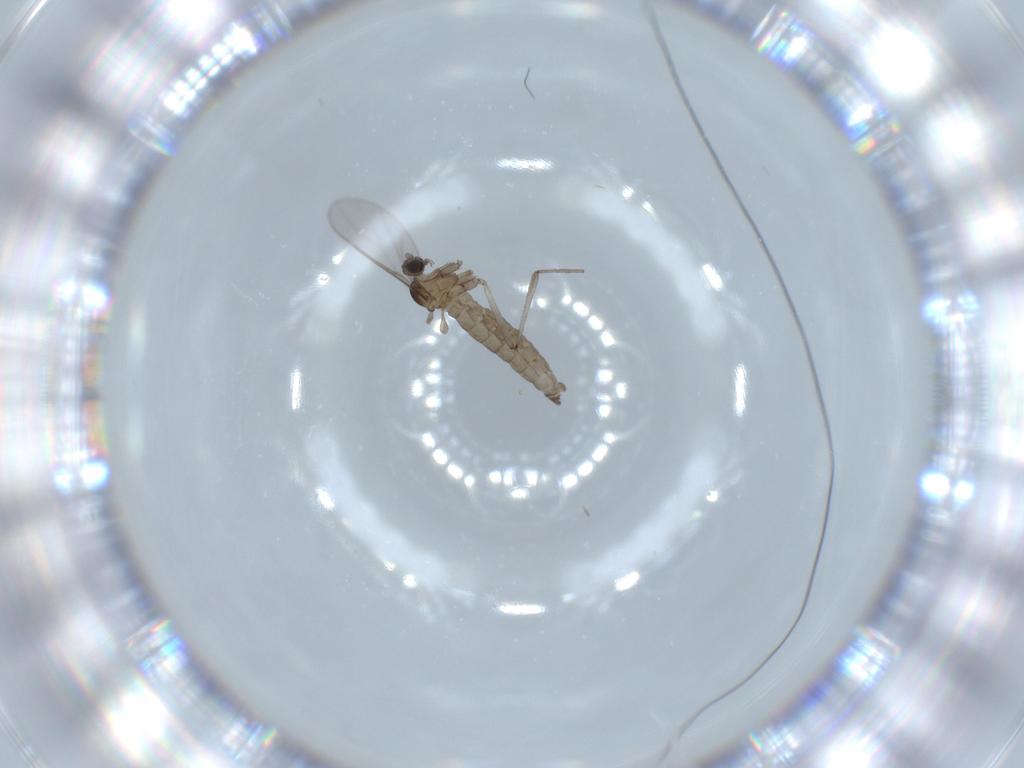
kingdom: Animalia
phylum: Arthropoda
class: Insecta
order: Diptera
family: Cecidomyiidae
